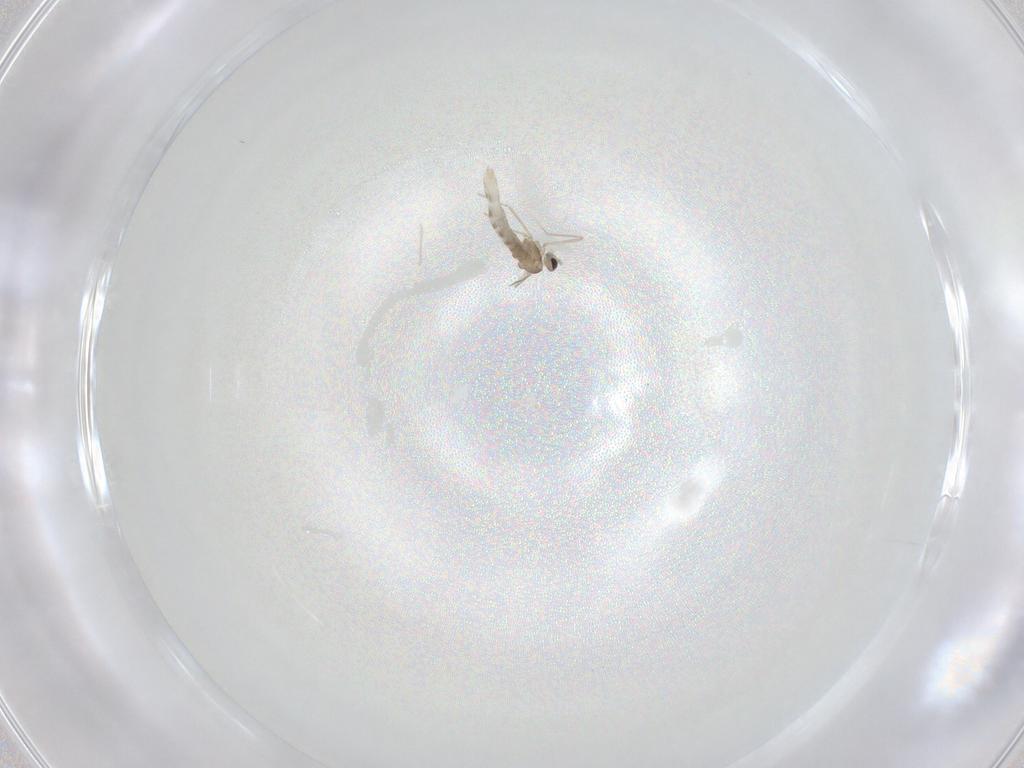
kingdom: Animalia
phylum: Arthropoda
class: Insecta
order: Diptera
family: Cecidomyiidae
